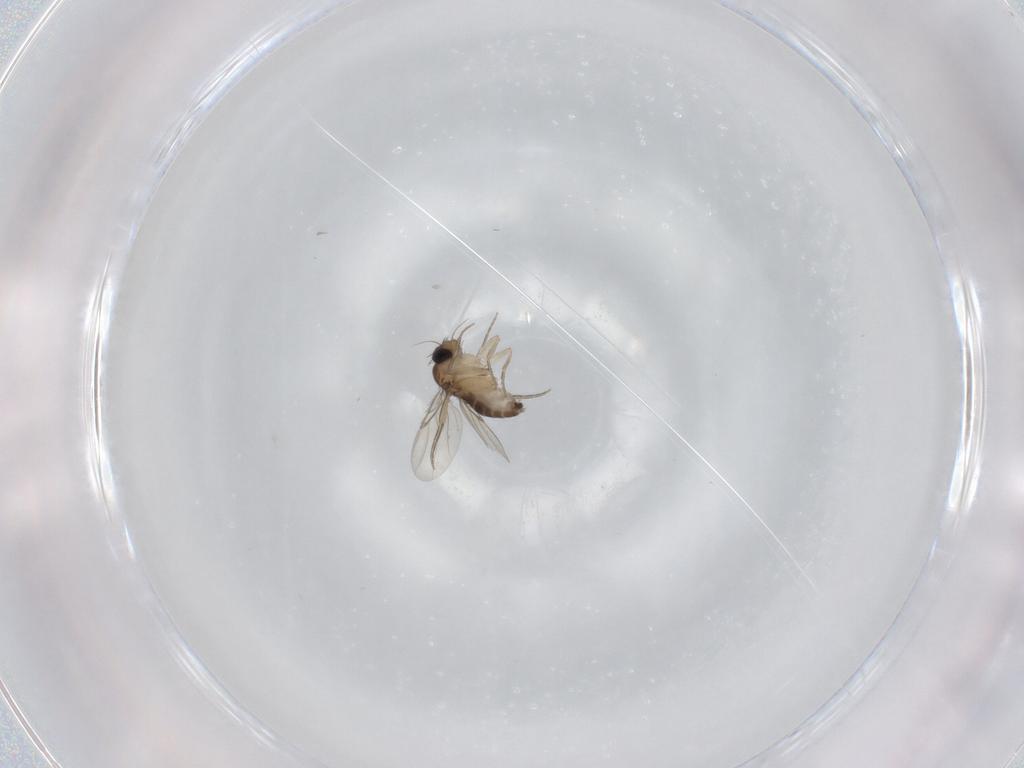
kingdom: Animalia
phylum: Arthropoda
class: Insecta
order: Diptera
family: Phoridae
